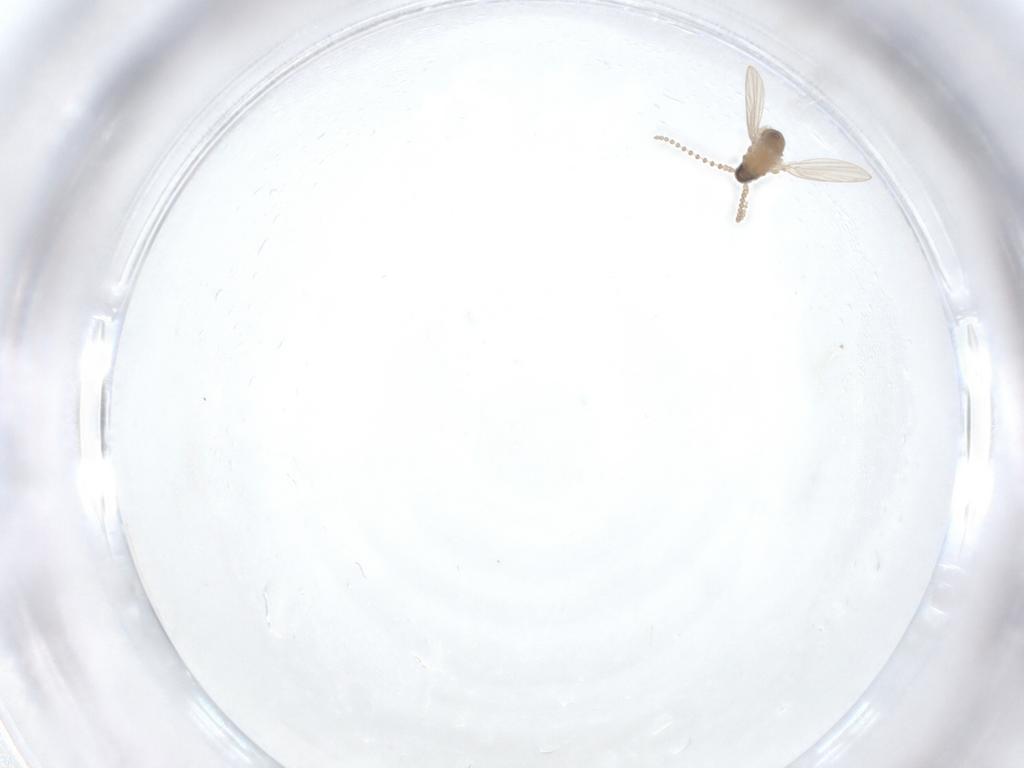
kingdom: Animalia
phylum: Arthropoda
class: Insecta
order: Diptera
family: Psychodidae
